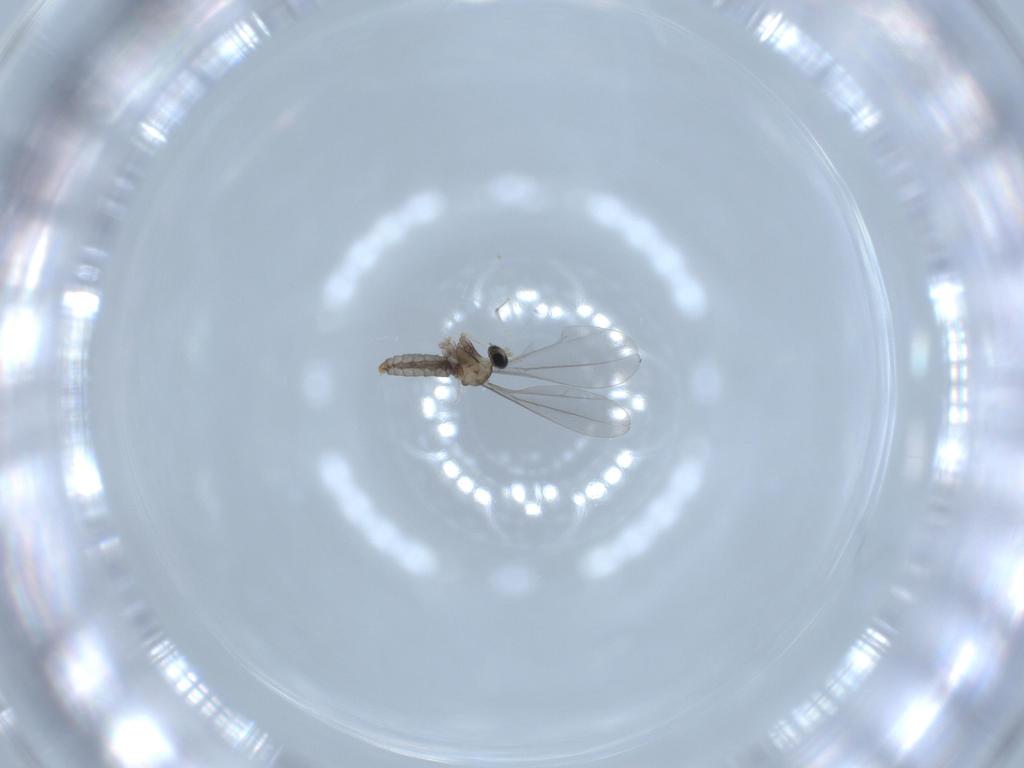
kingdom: Animalia
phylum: Arthropoda
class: Insecta
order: Diptera
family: Cecidomyiidae
